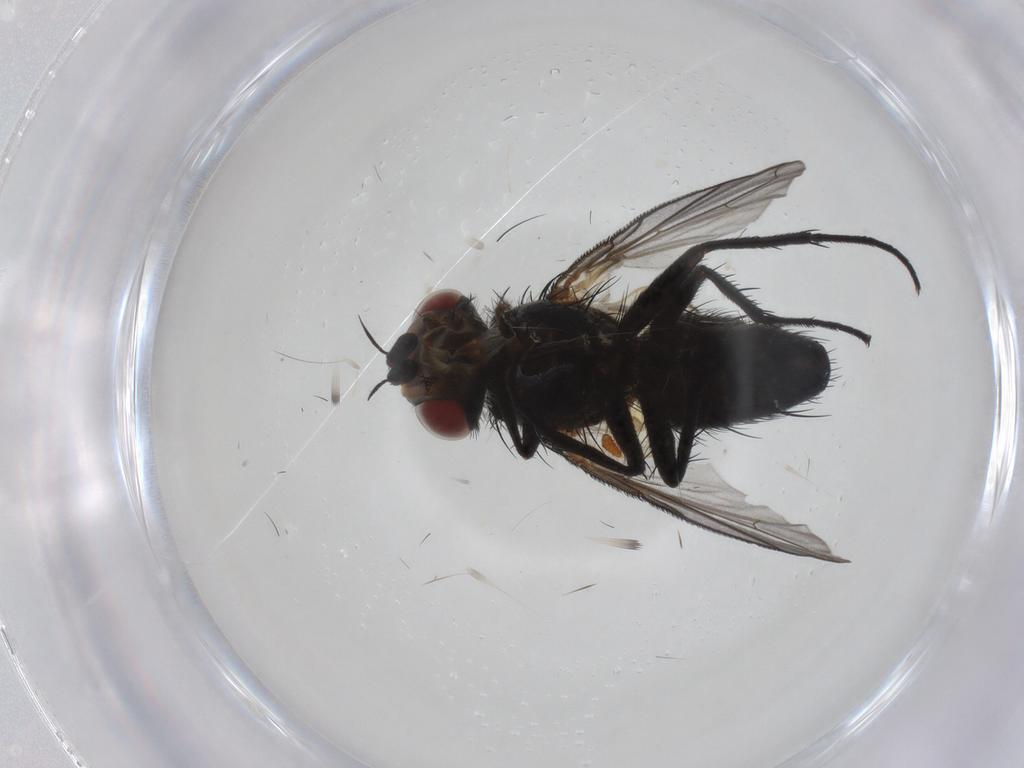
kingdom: Animalia
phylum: Arthropoda
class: Insecta
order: Diptera
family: Tachinidae
